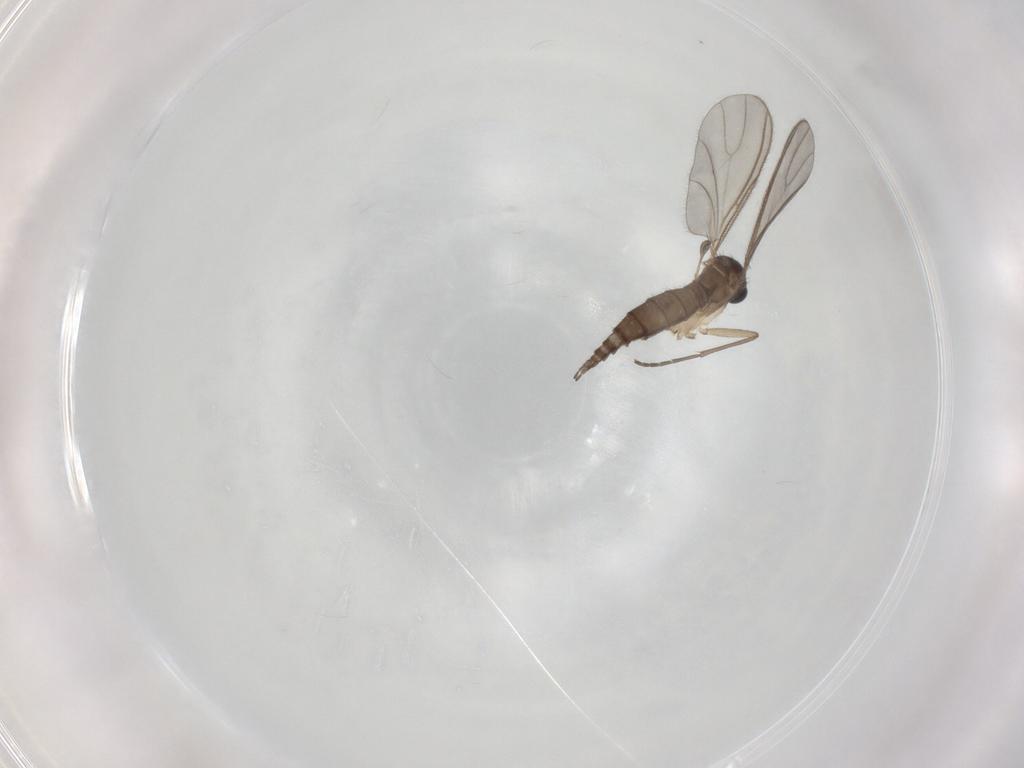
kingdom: Animalia
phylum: Arthropoda
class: Insecta
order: Diptera
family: Sciaridae
